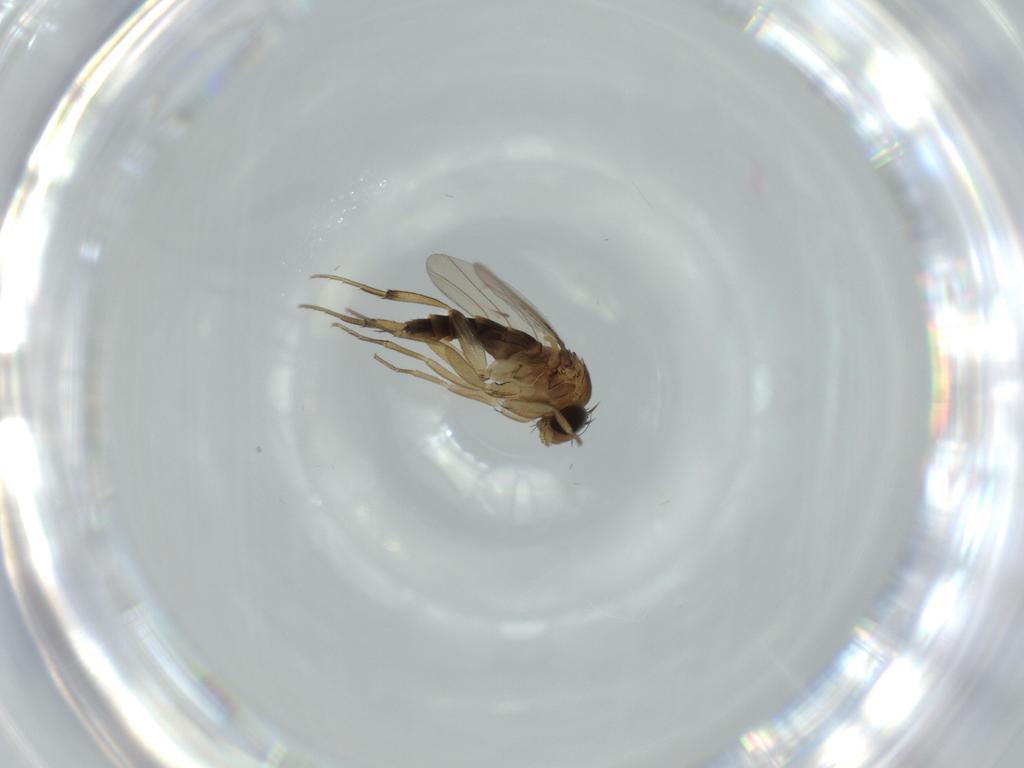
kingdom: Animalia
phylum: Arthropoda
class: Insecta
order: Diptera
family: Phoridae
